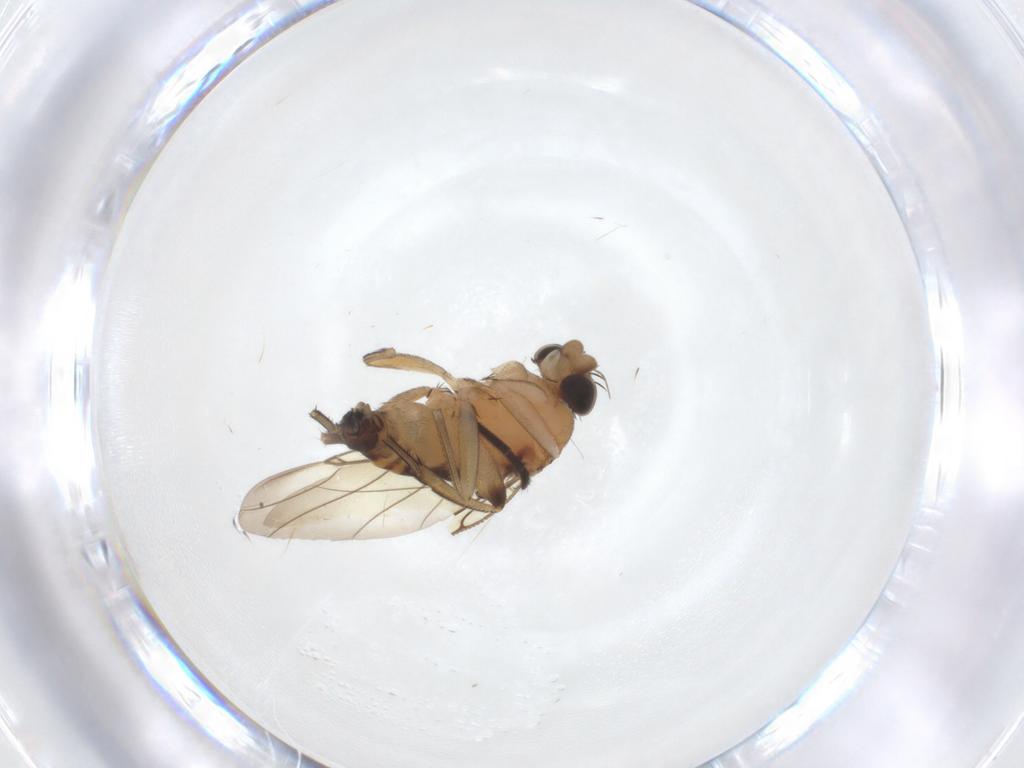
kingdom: Animalia
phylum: Arthropoda
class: Insecta
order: Diptera
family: Micropezidae
